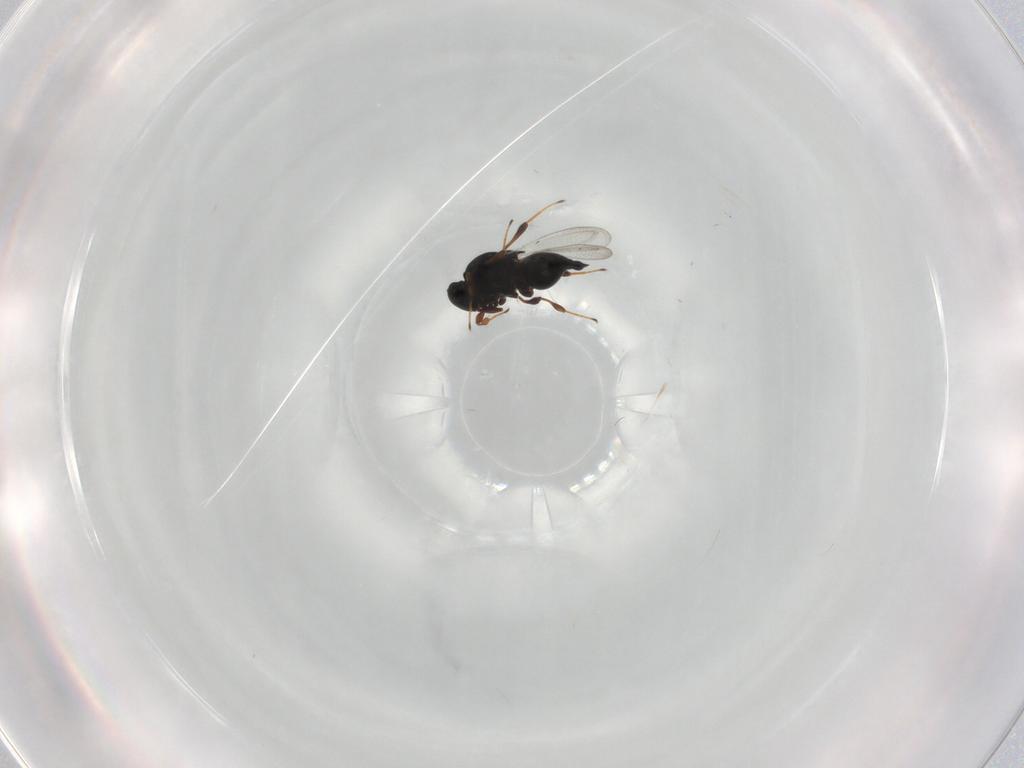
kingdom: Animalia
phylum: Arthropoda
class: Insecta
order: Hymenoptera
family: Platygastridae
